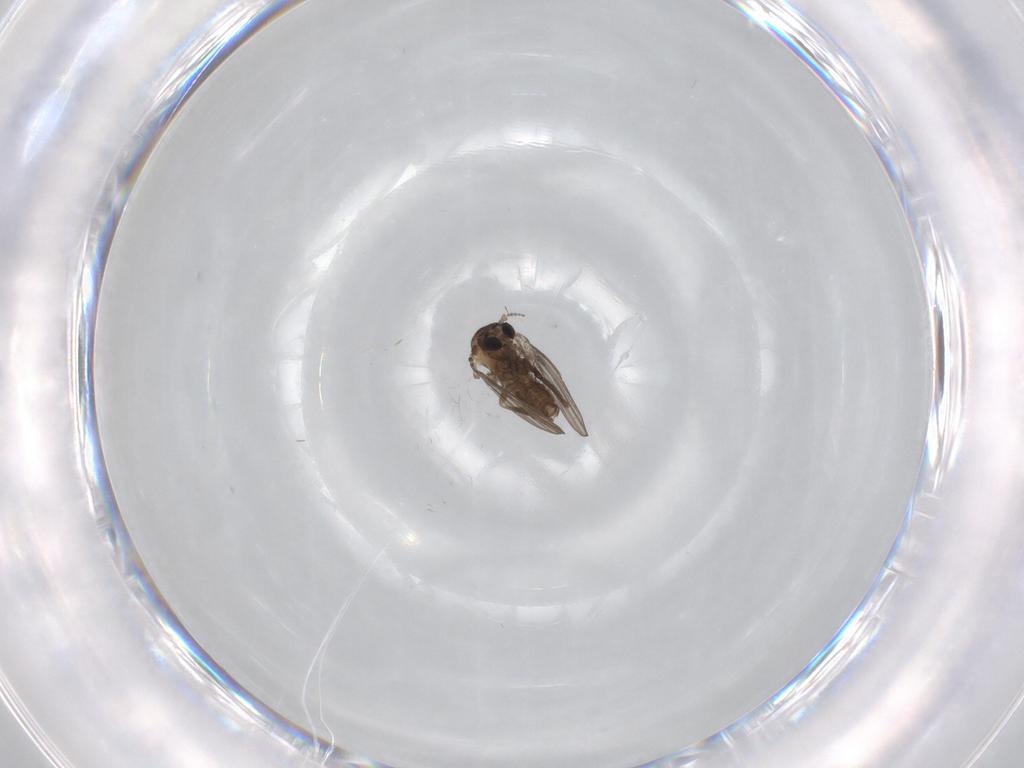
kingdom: Animalia
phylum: Arthropoda
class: Insecta
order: Diptera
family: Psychodidae
